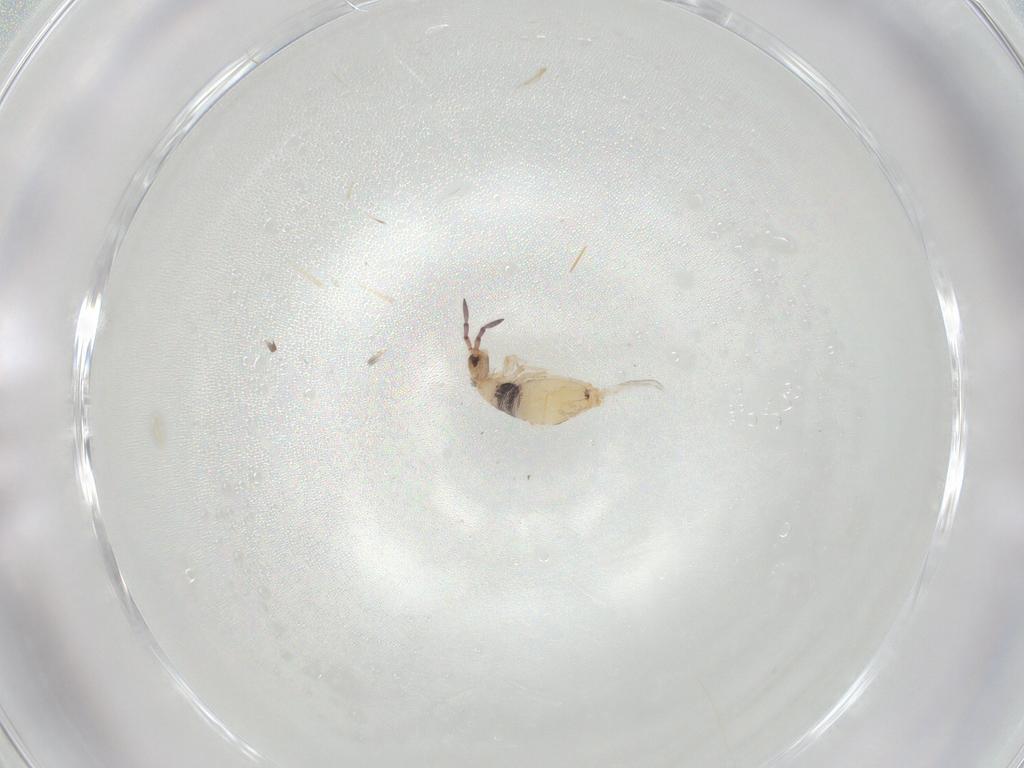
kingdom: Animalia
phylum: Arthropoda
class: Collembola
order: Entomobryomorpha
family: Entomobryidae
